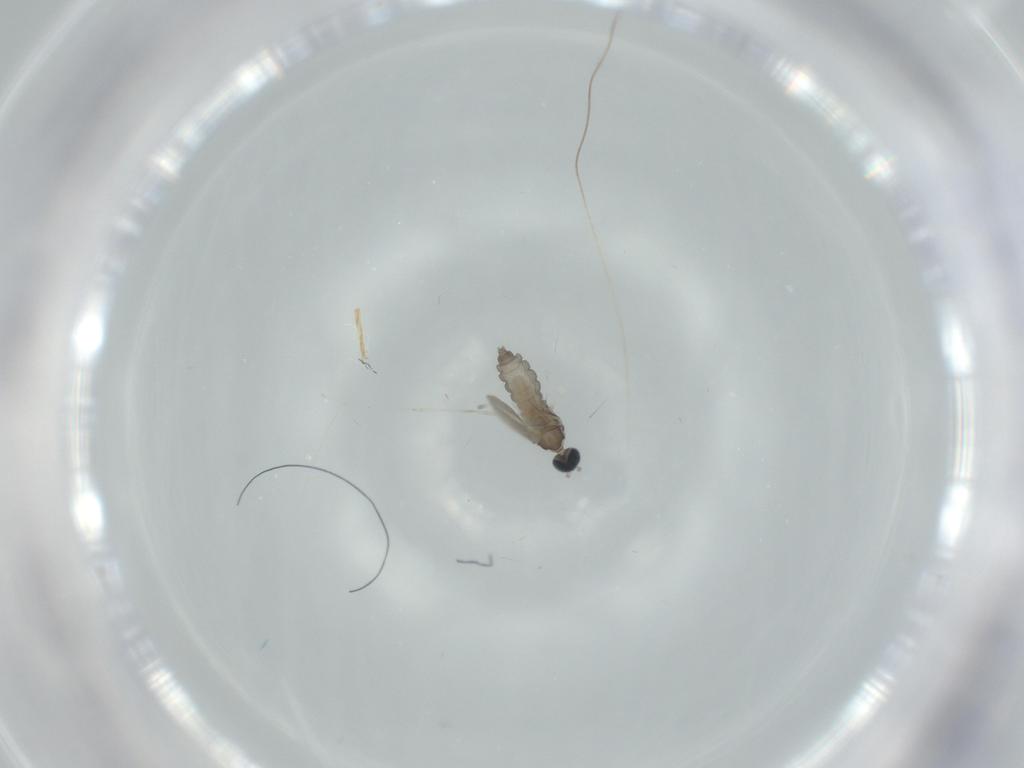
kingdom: Animalia
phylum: Arthropoda
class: Insecta
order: Diptera
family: Cecidomyiidae
